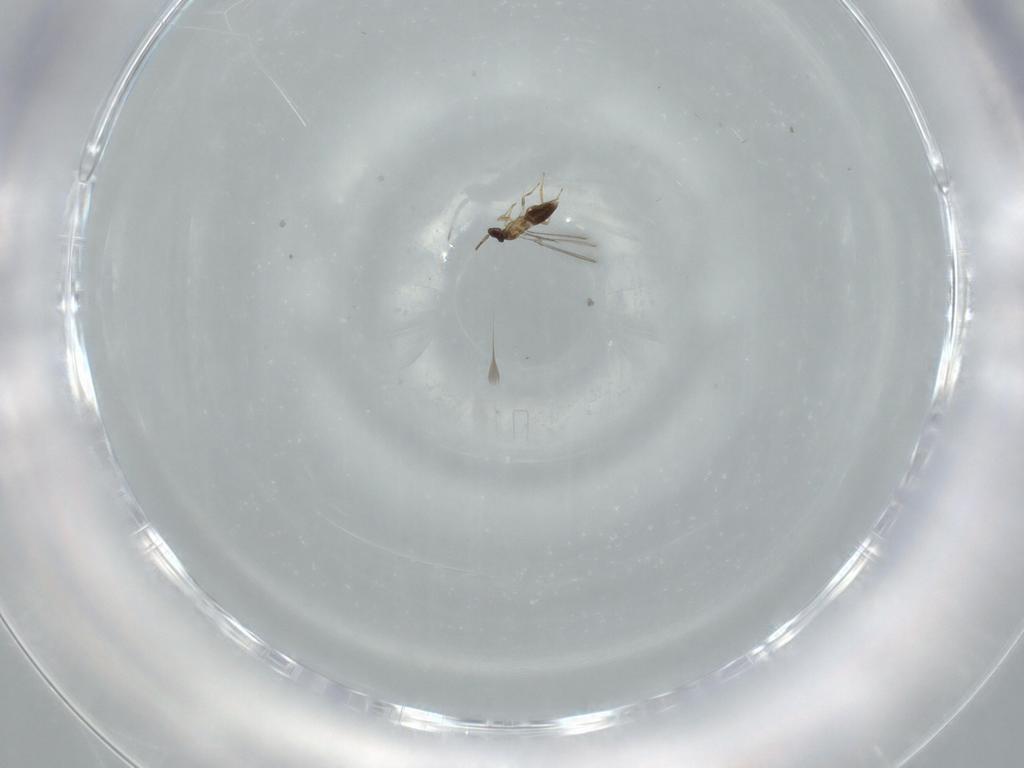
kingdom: Animalia
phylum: Arthropoda
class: Insecta
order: Hymenoptera
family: Mymaridae
